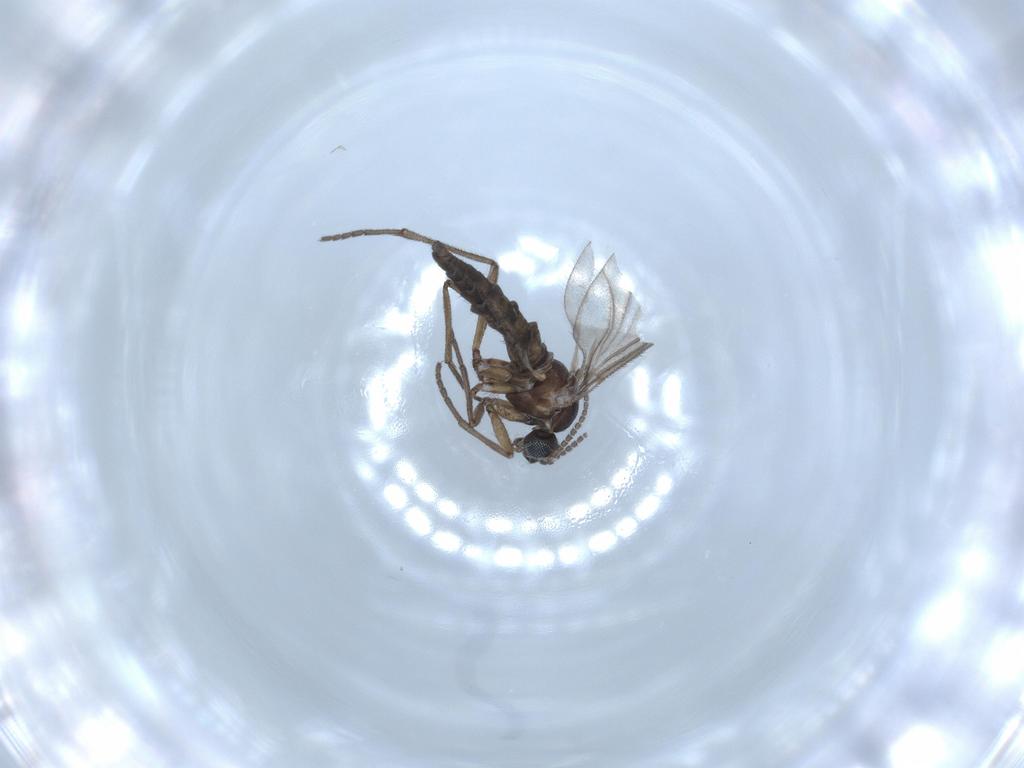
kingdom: Animalia
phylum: Arthropoda
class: Insecta
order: Diptera
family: Sciaridae
